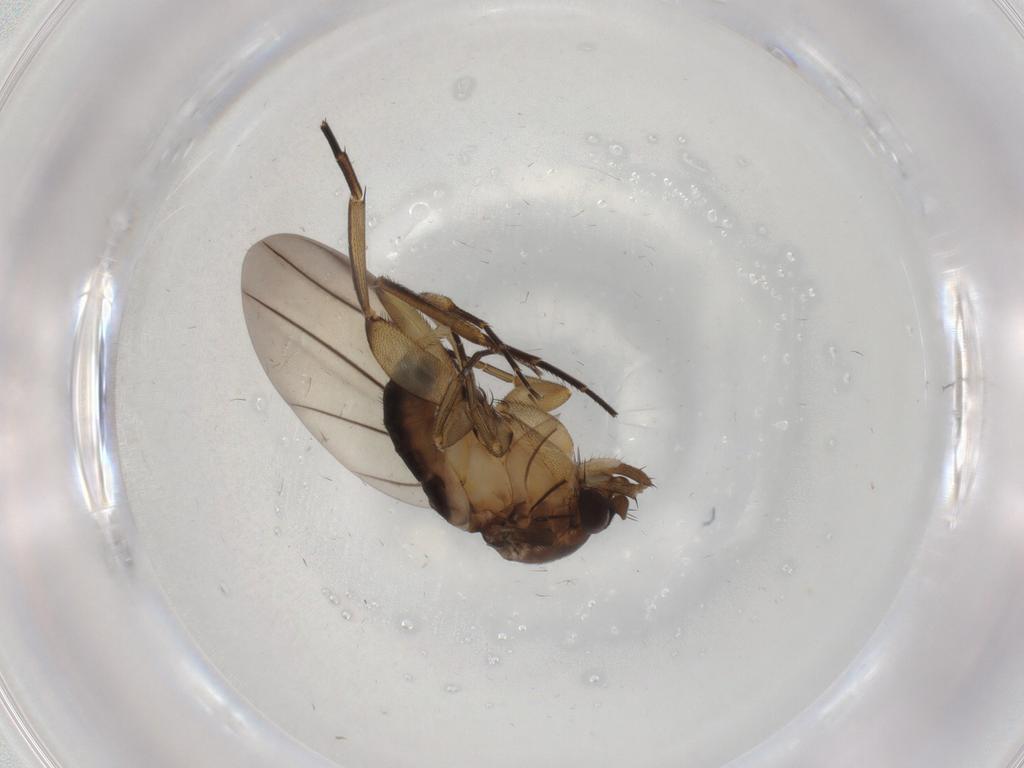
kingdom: Animalia
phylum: Arthropoda
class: Insecta
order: Diptera
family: Phoridae
